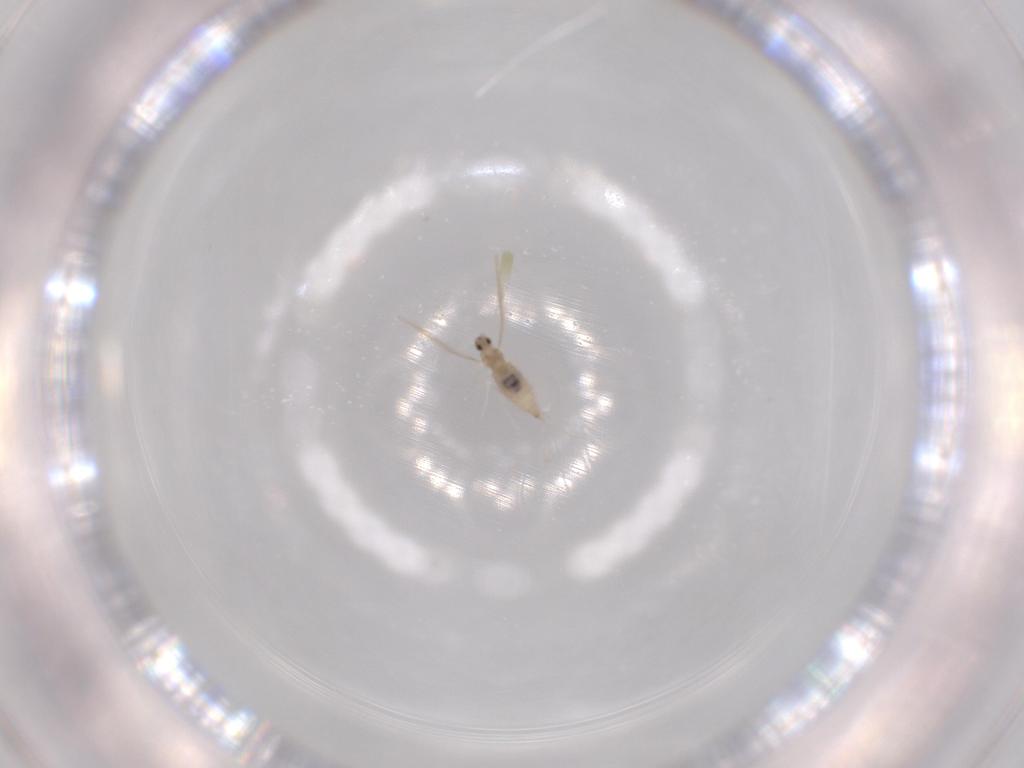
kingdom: Animalia
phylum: Arthropoda
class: Insecta
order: Diptera
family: Cecidomyiidae
